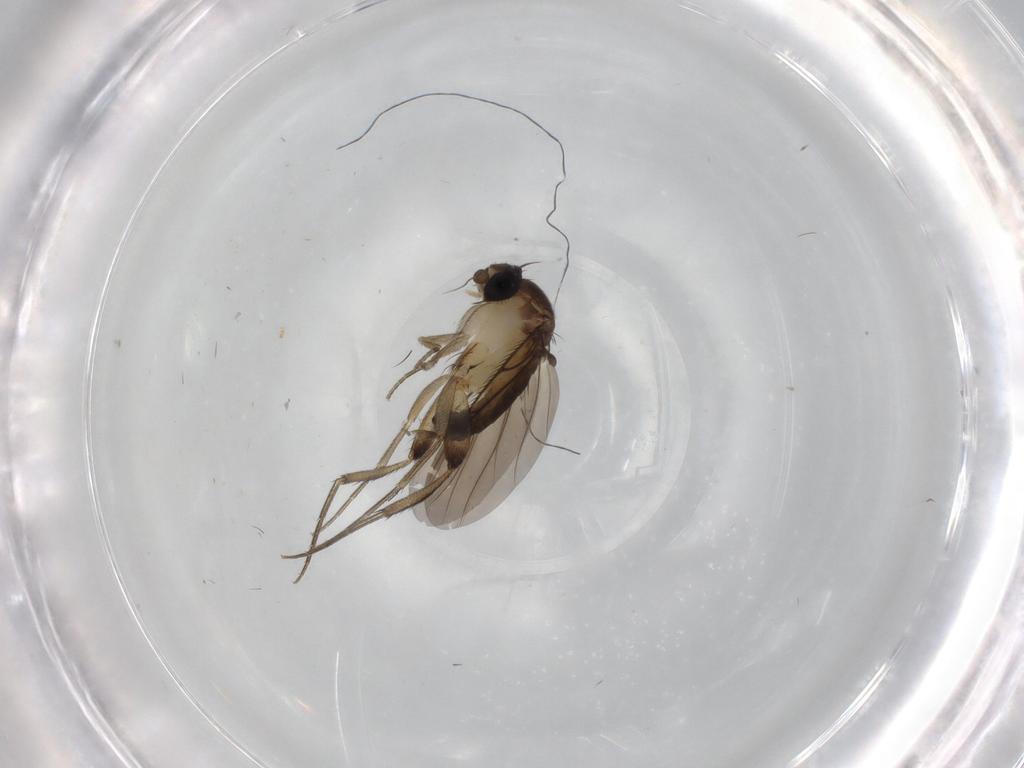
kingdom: Animalia
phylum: Arthropoda
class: Insecta
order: Diptera
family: Phoridae
